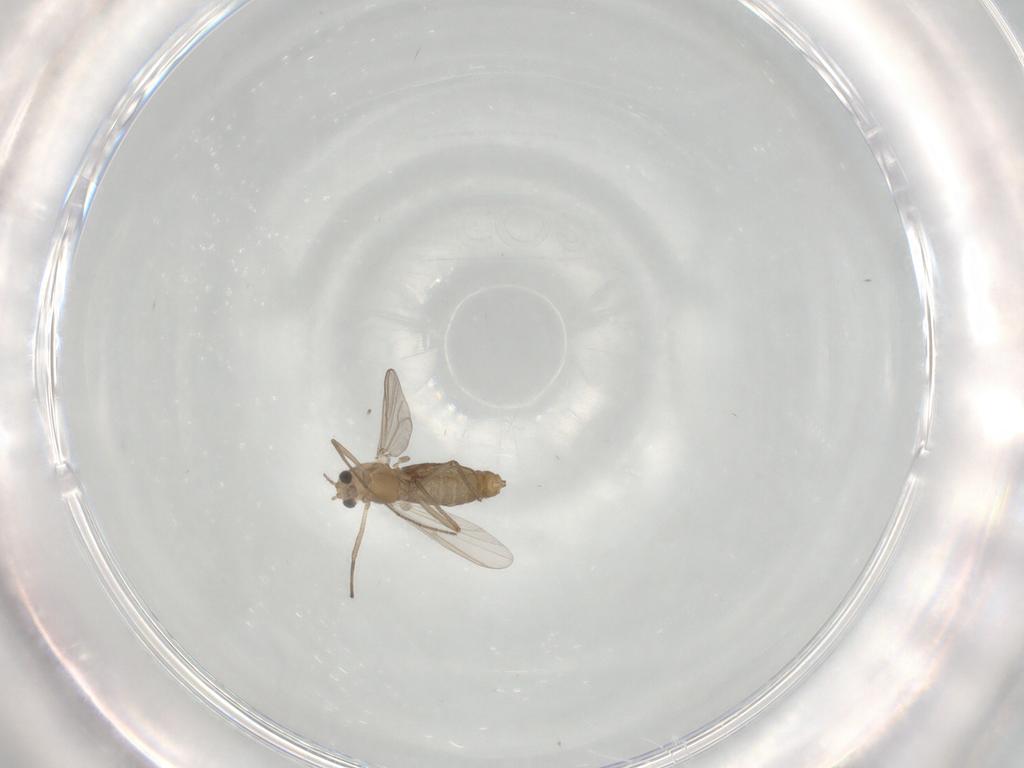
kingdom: Animalia
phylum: Arthropoda
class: Insecta
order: Diptera
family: Chironomidae
